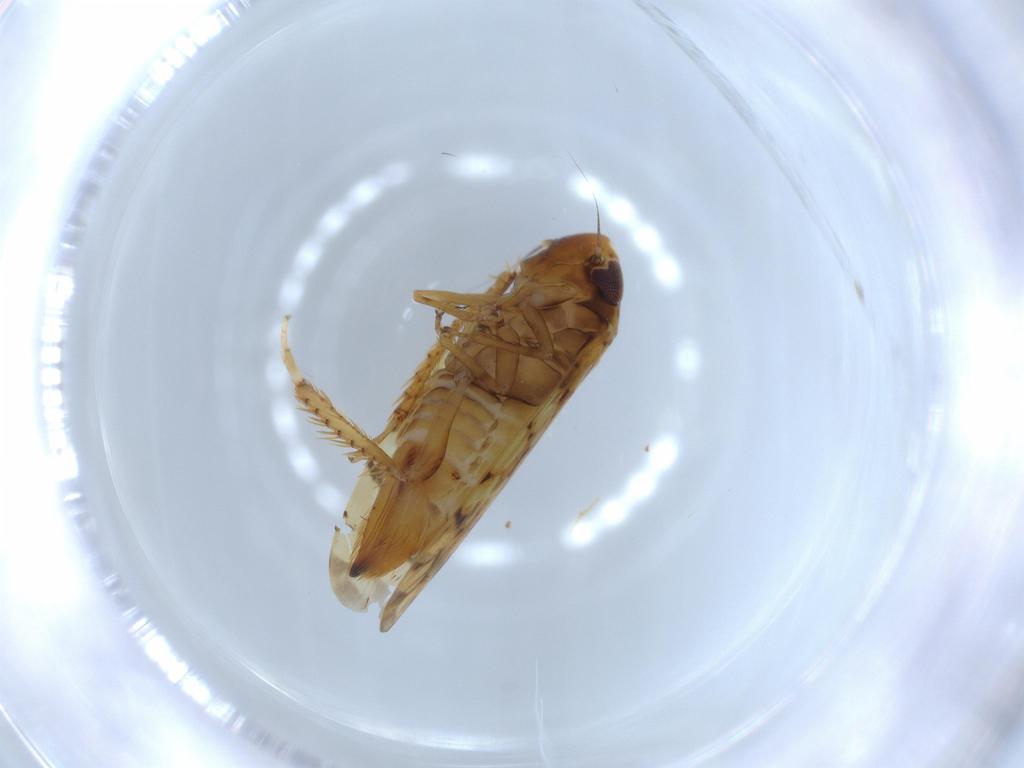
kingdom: Animalia
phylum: Arthropoda
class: Insecta
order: Hemiptera
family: Cicadellidae
